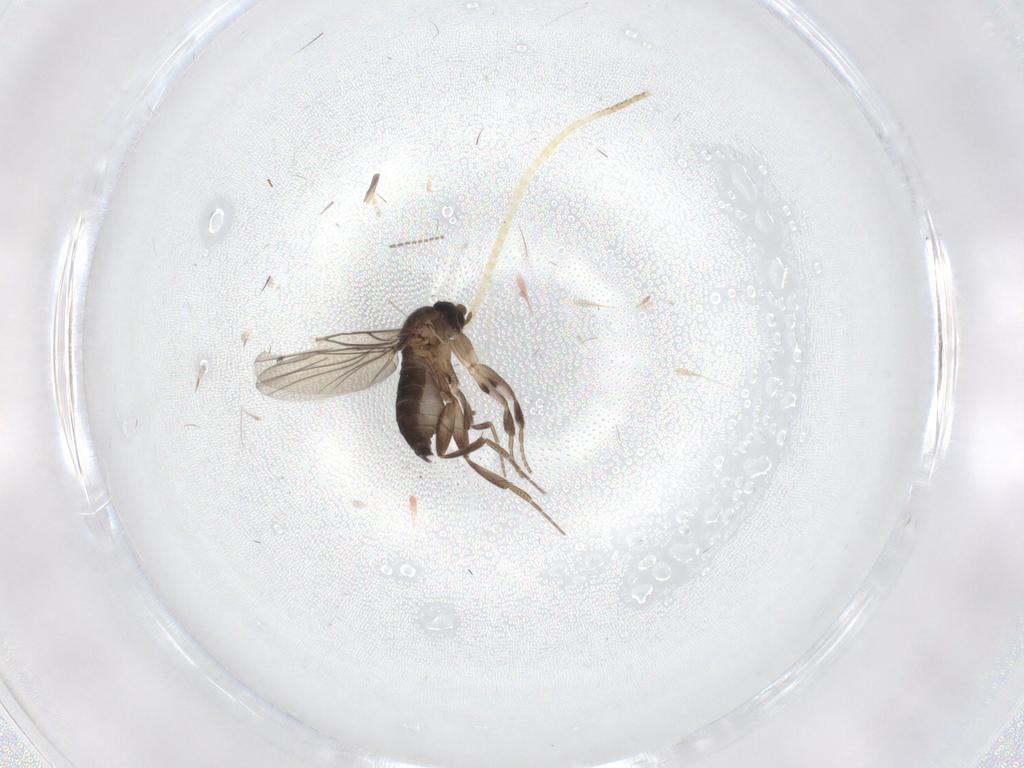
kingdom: Animalia
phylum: Arthropoda
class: Insecta
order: Diptera
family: Phoridae
